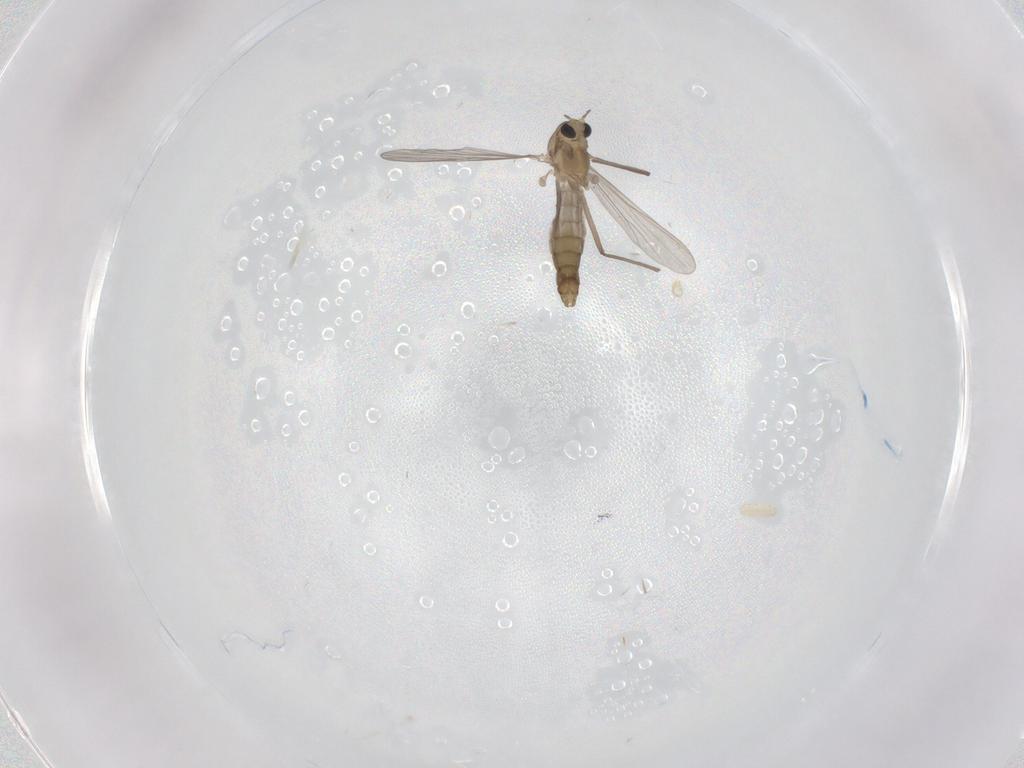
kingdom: Animalia
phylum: Arthropoda
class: Insecta
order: Diptera
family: Chironomidae
